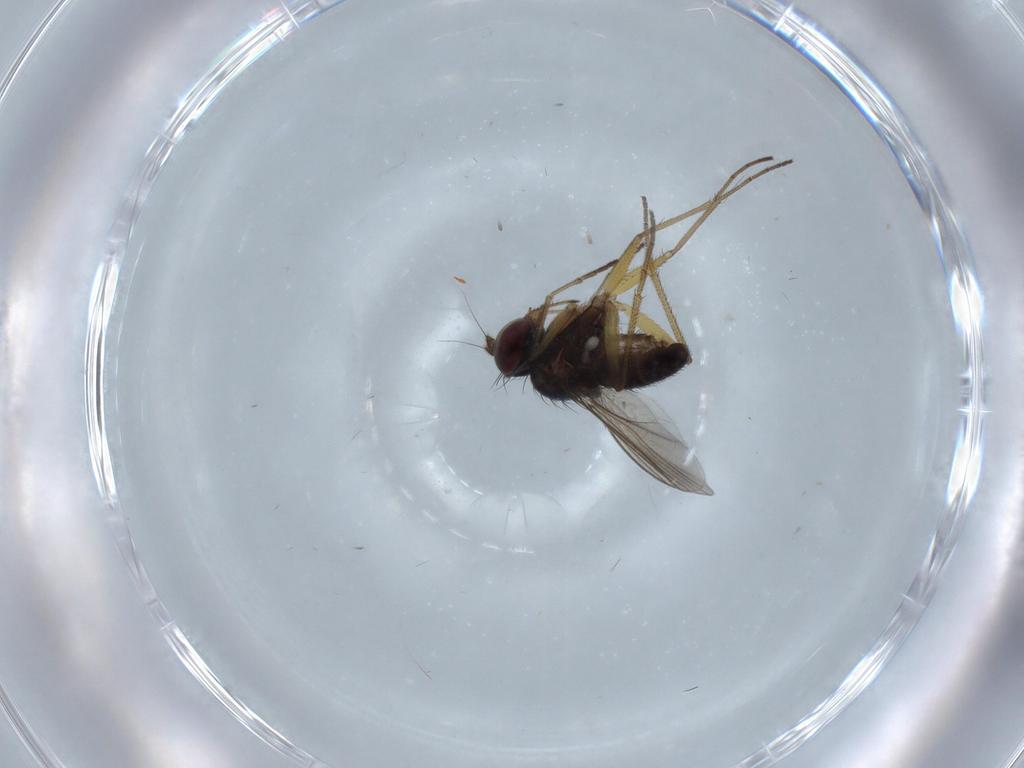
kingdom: Animalia
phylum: Arthropoda
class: Insecta
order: Diptera
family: Dolichopodidae
